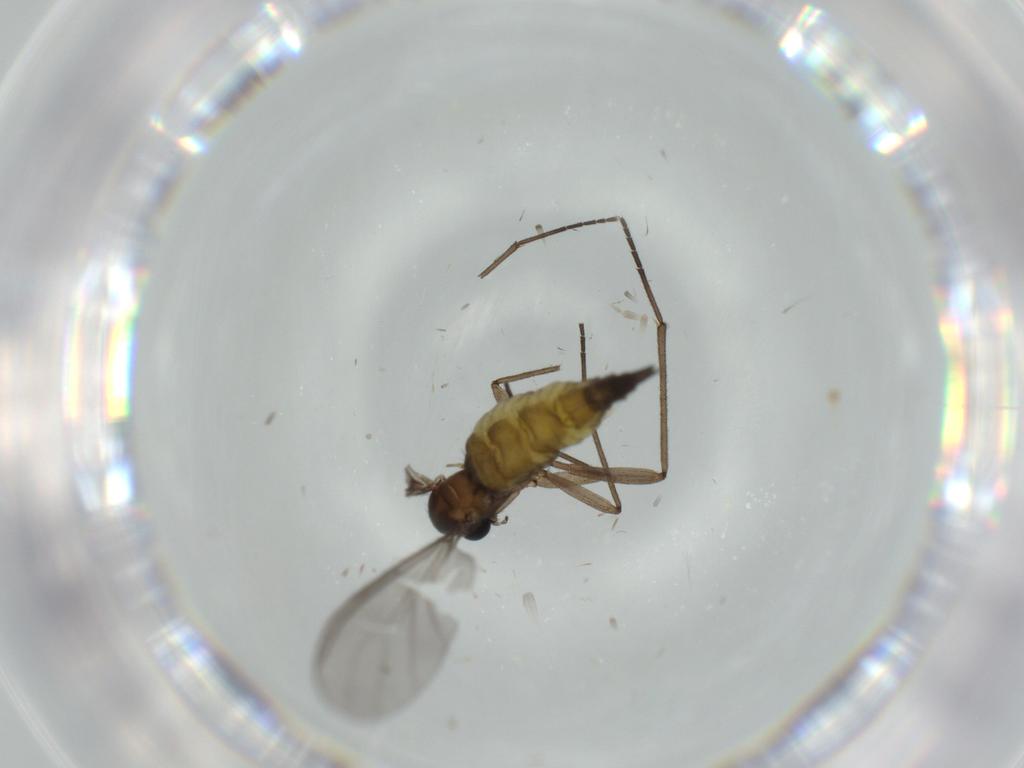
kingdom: Animalia
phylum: Arthropoda
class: Insecta
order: Diptera
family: Sciaridae
